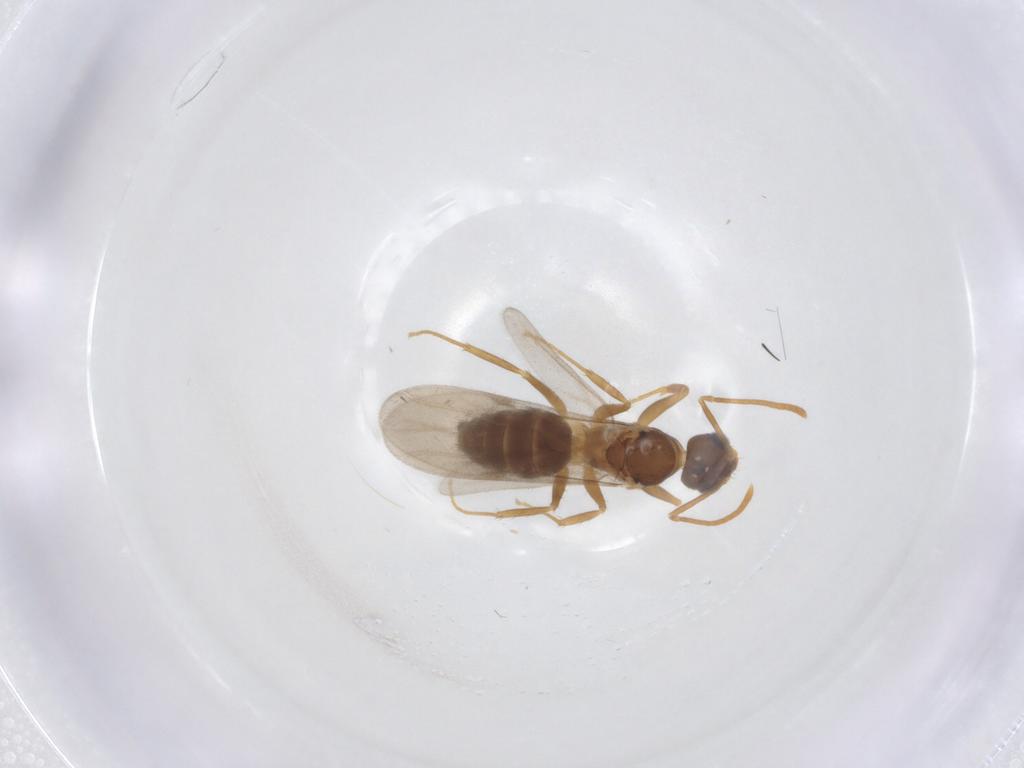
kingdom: Animalia
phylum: Arthropoda
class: Insecta
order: Hymenoptera
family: Formicidae
